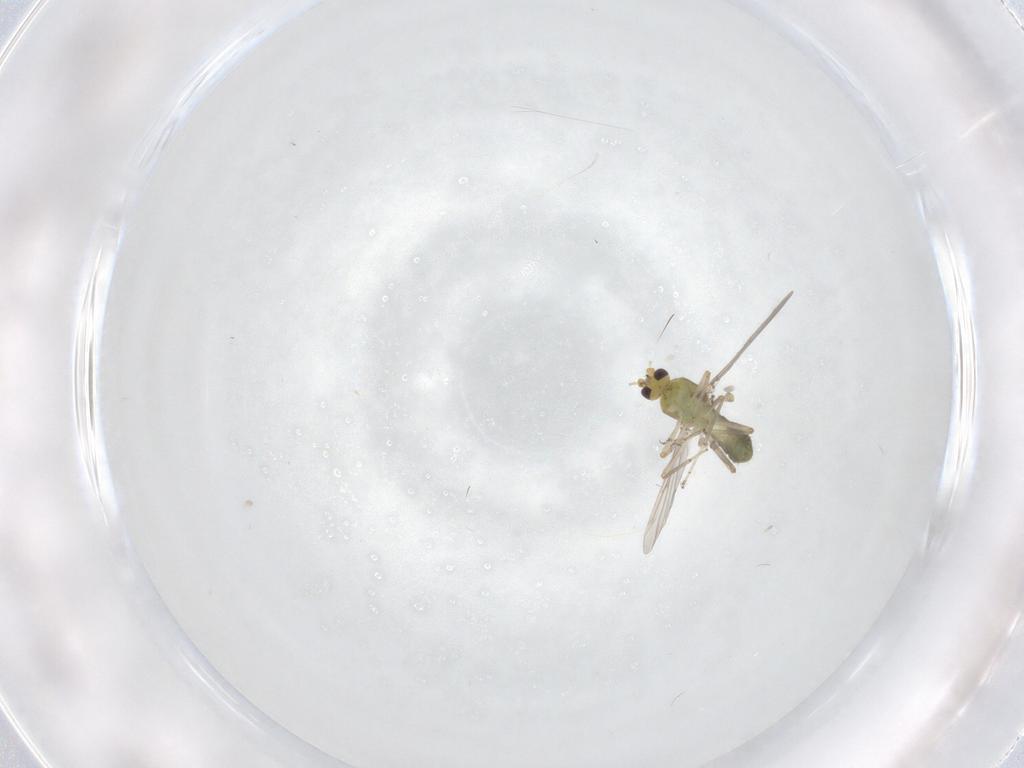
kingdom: Animalia
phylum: Arthropoda
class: Insecta
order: Diptera
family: Ceratopogonidae
